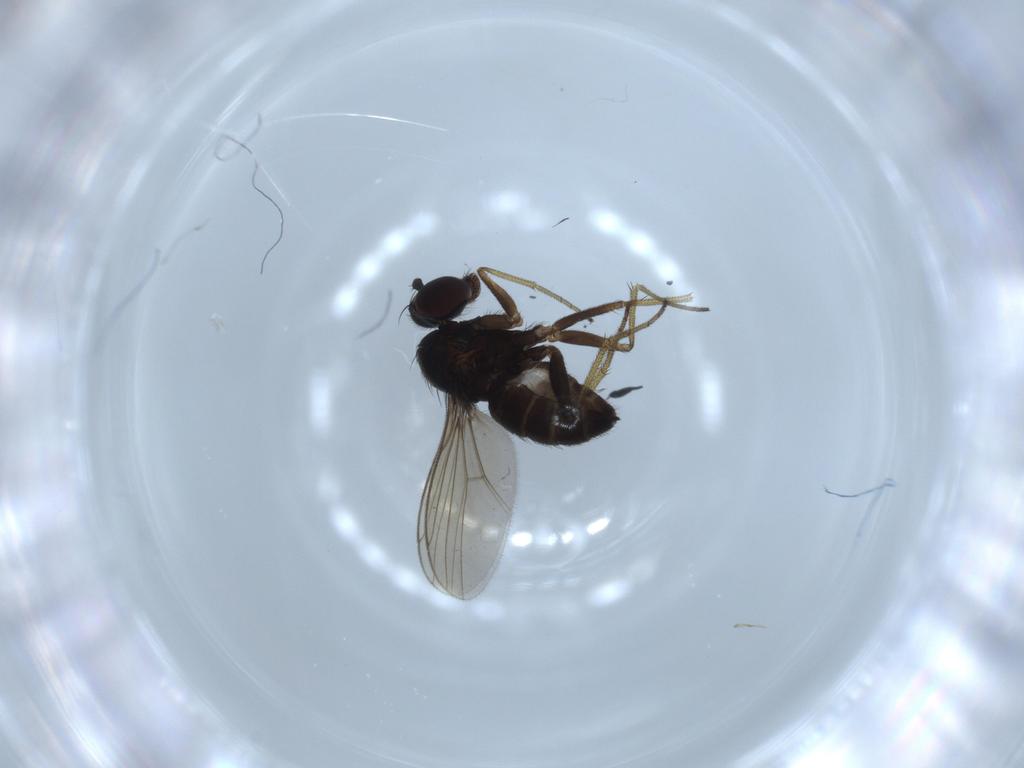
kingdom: Animalia
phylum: Arthropoda
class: Insecta
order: Diptera
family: Dolichopodidae
